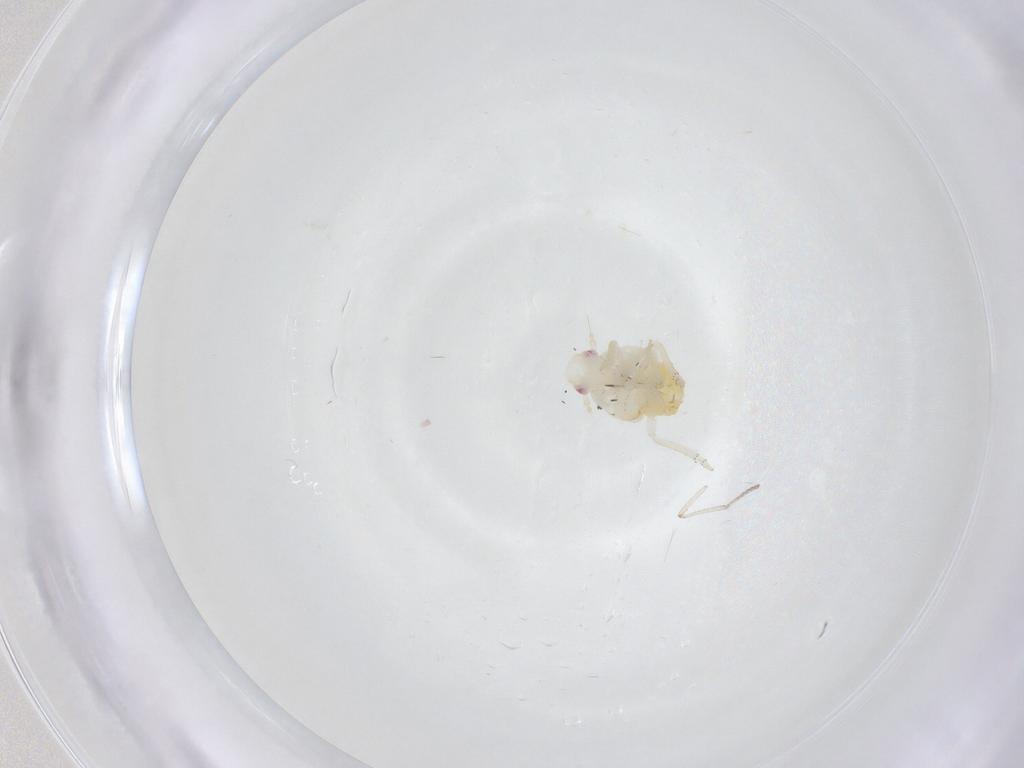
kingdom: Animalia
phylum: Arthropoda
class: Insecta
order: Hemiptera
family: Fulgoroidea_incertae_sedis
